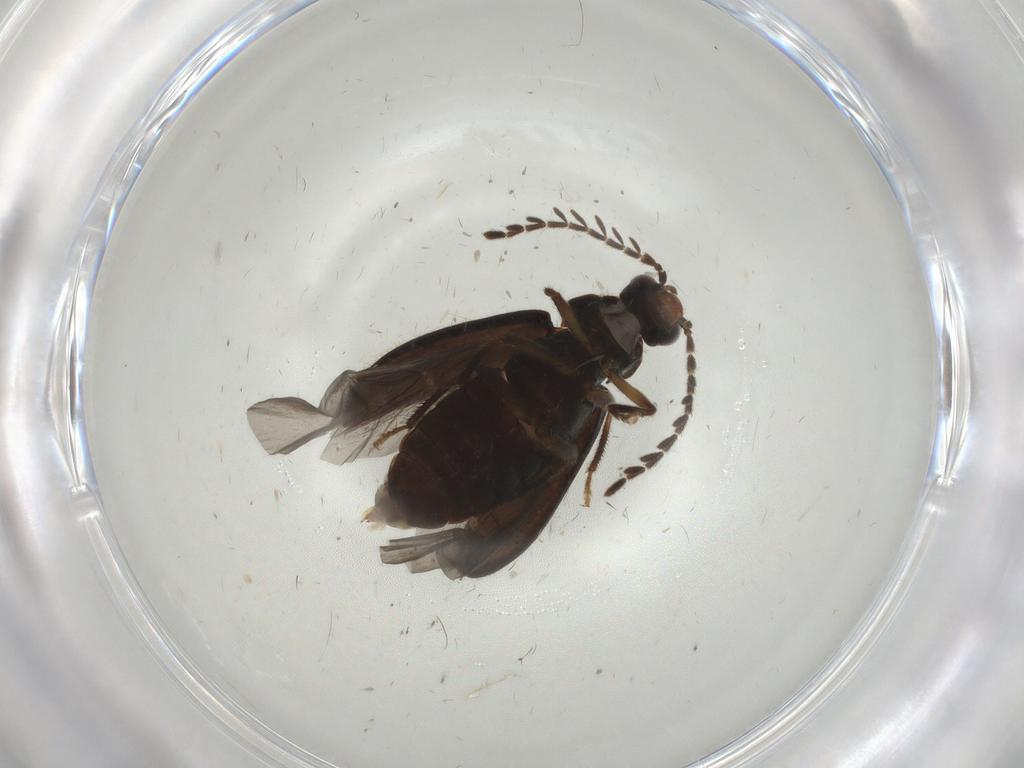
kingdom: Animalia
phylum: Arthropoda
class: Insecta
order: Coleoptera
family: Ptilodactylidae
